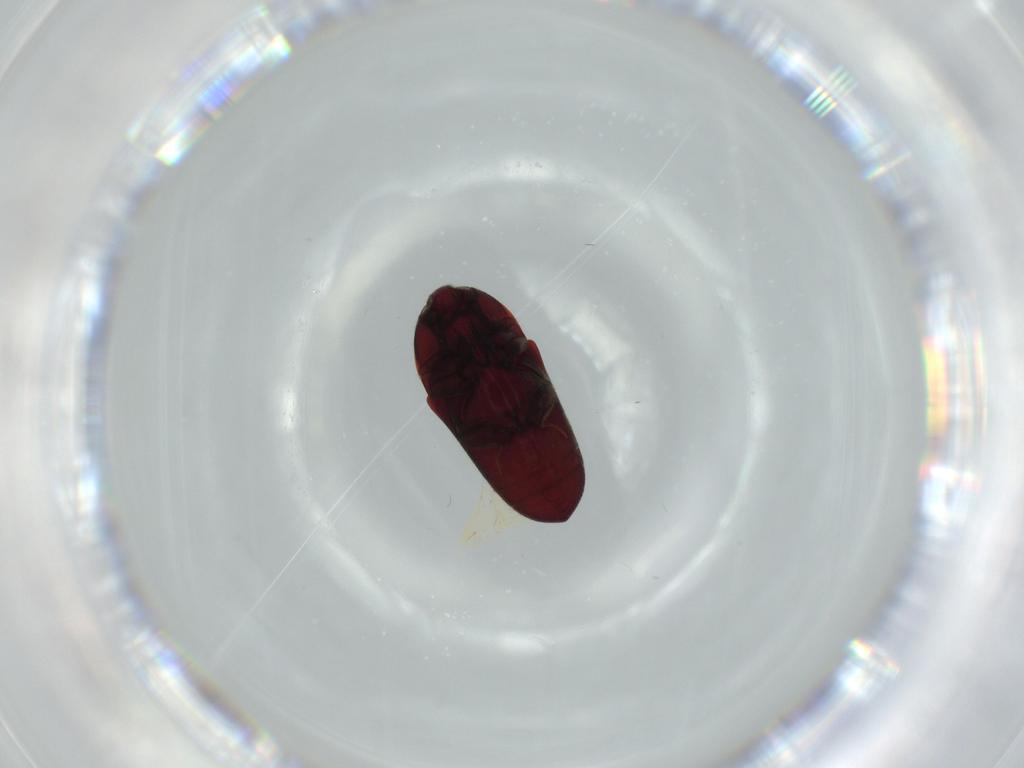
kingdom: Animalia
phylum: Arthropoda
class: Insecta
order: Coleoptera
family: Throscidae
